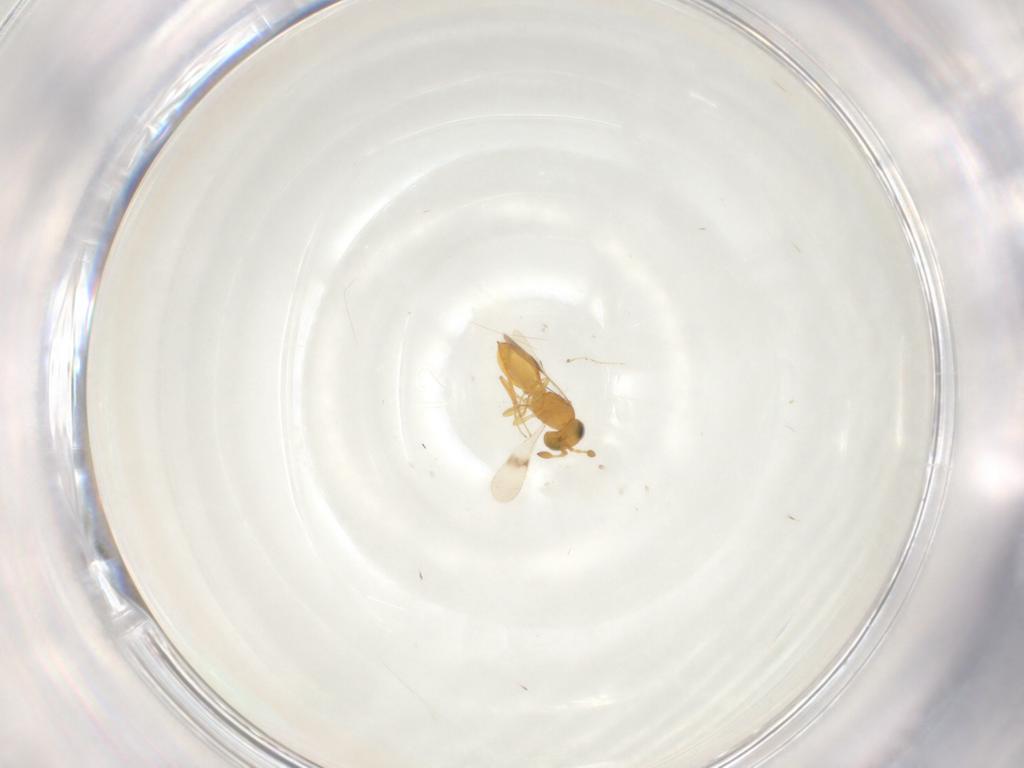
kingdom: Animalia
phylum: Arthropoda
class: Insecta
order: Hymenoptera
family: Scelionidae
